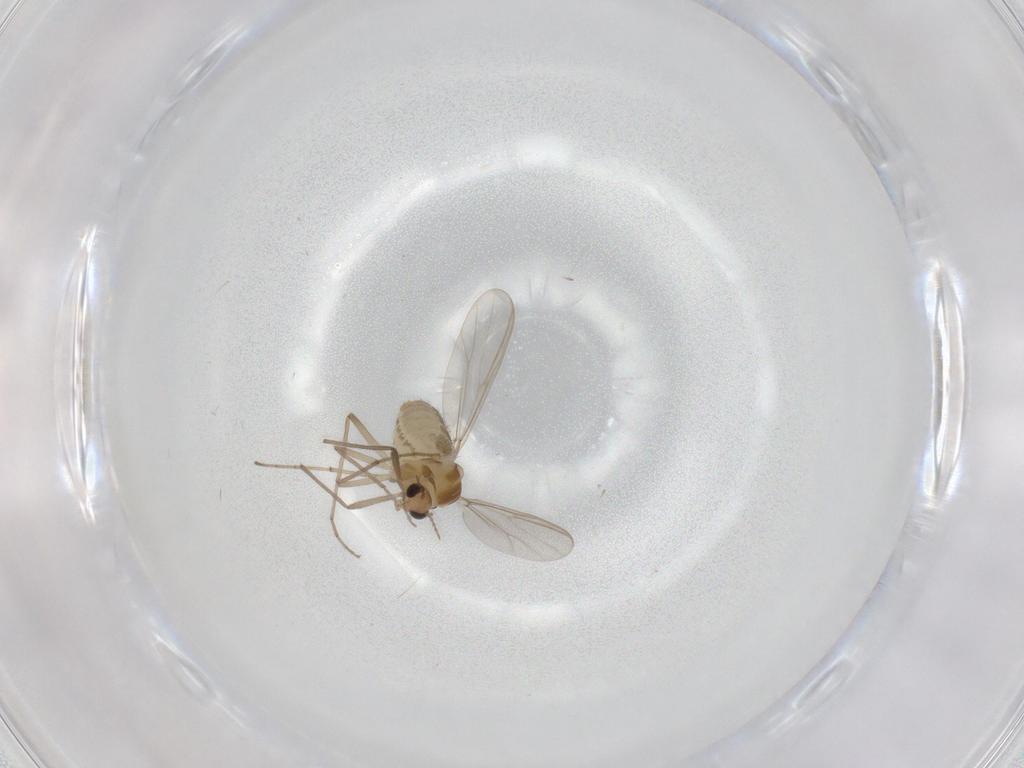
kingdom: Animalia
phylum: Arthropoda
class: Insecta
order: Diptera
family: Chironomidae
